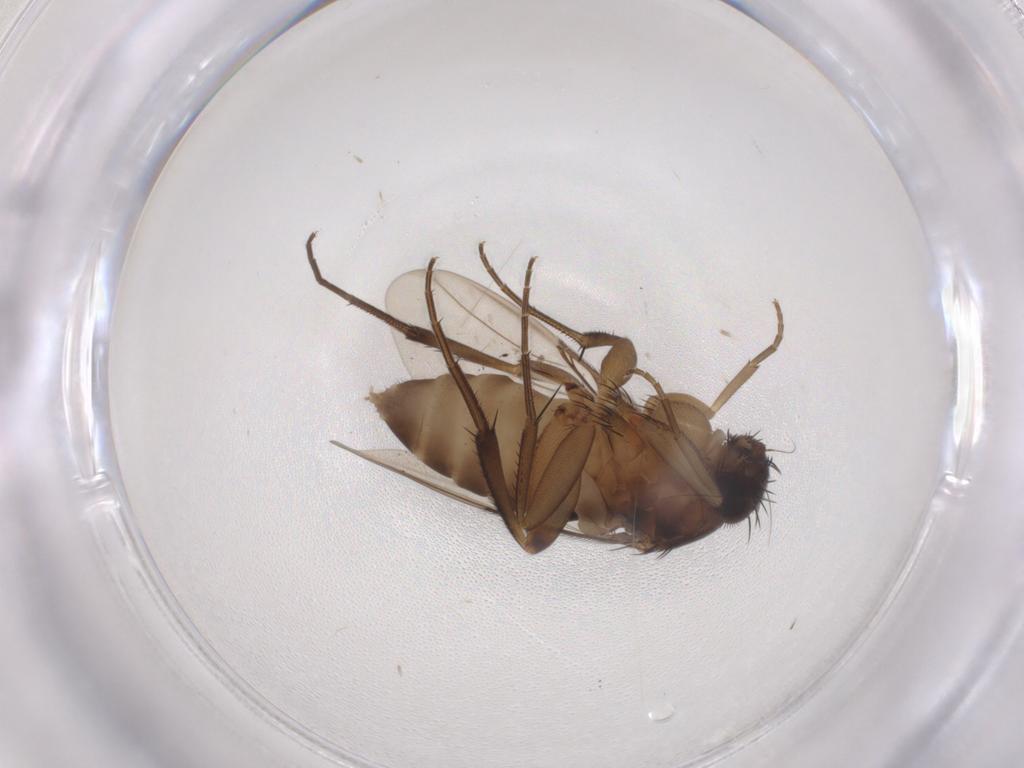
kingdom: Animalia
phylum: Arthropoda
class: Insecta
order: Diptera
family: Phoridae
